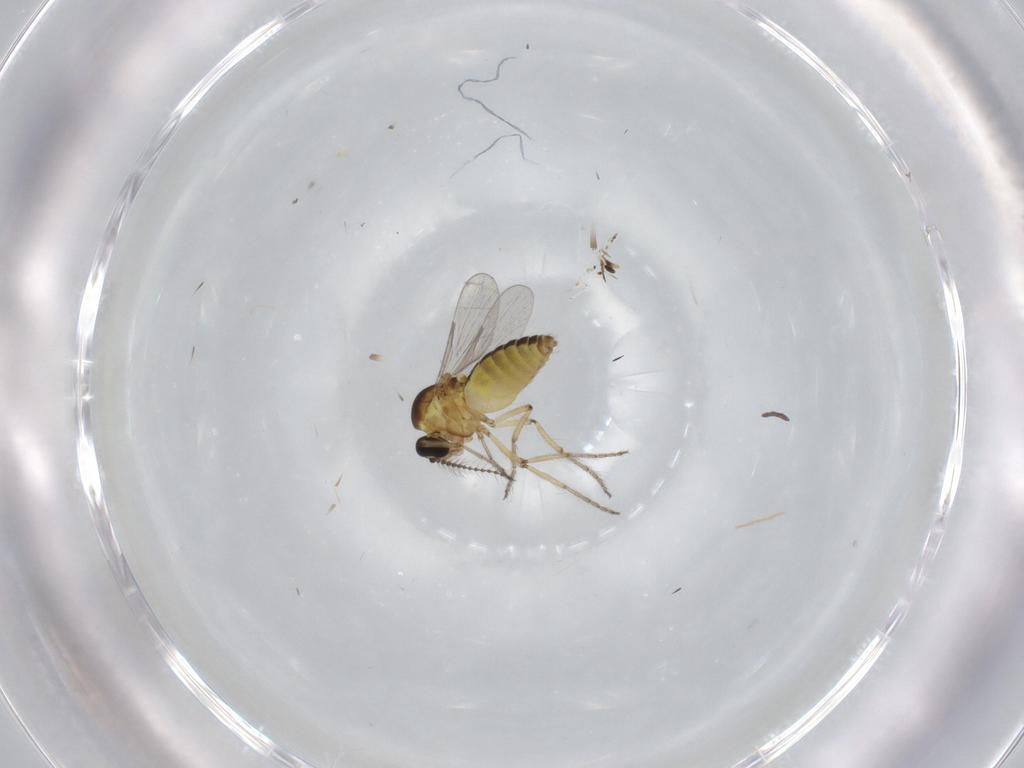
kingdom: Animalia
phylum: Arthropoda
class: Insecta
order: Diptera
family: Ceratopogonidae
